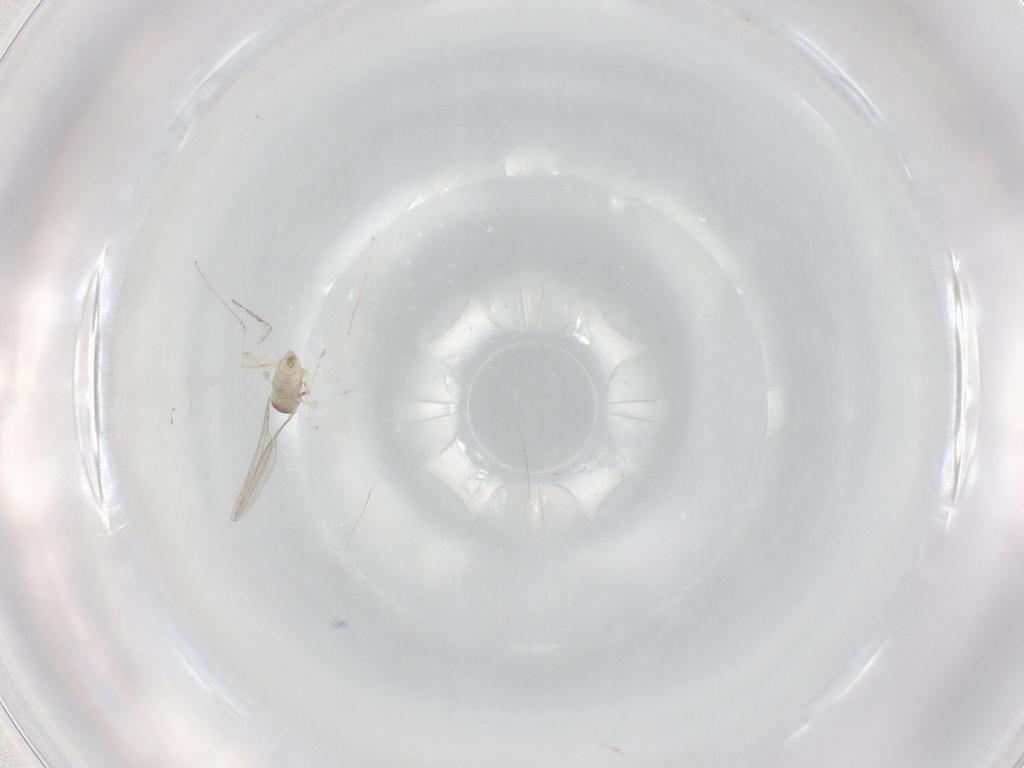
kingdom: Animalia
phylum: Arthropoda
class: Insecta
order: Diptera
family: Cecidomyiidae
